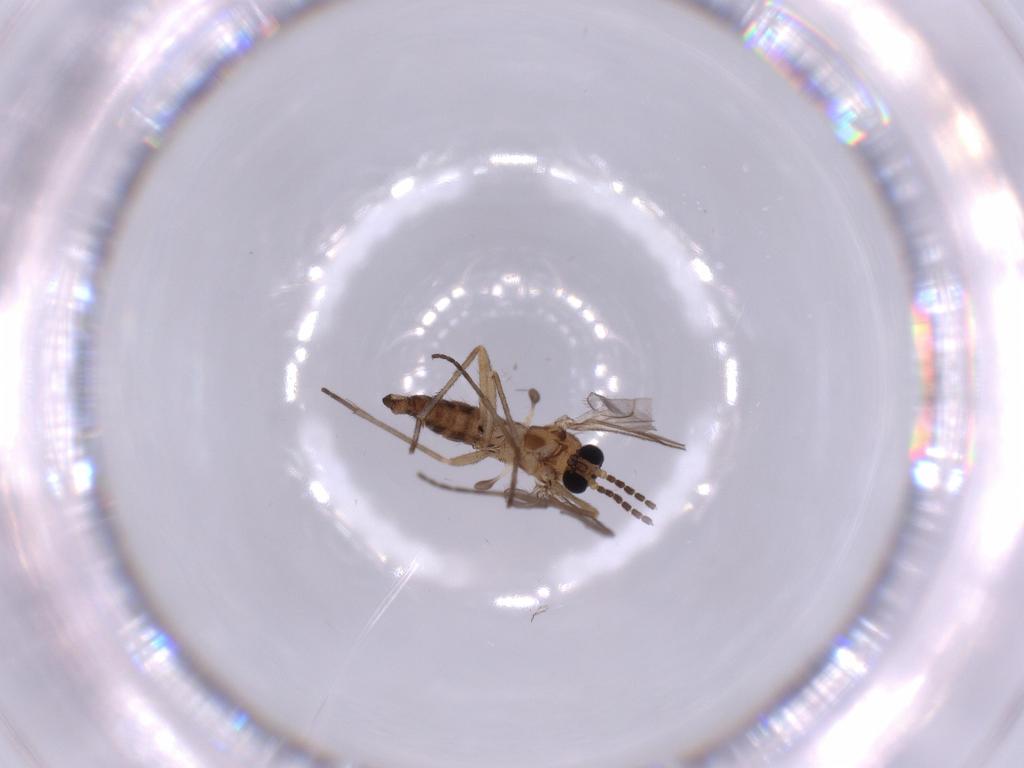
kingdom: Animalia
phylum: Arthropoda
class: Insecta
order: Diptera
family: Sciaridae
